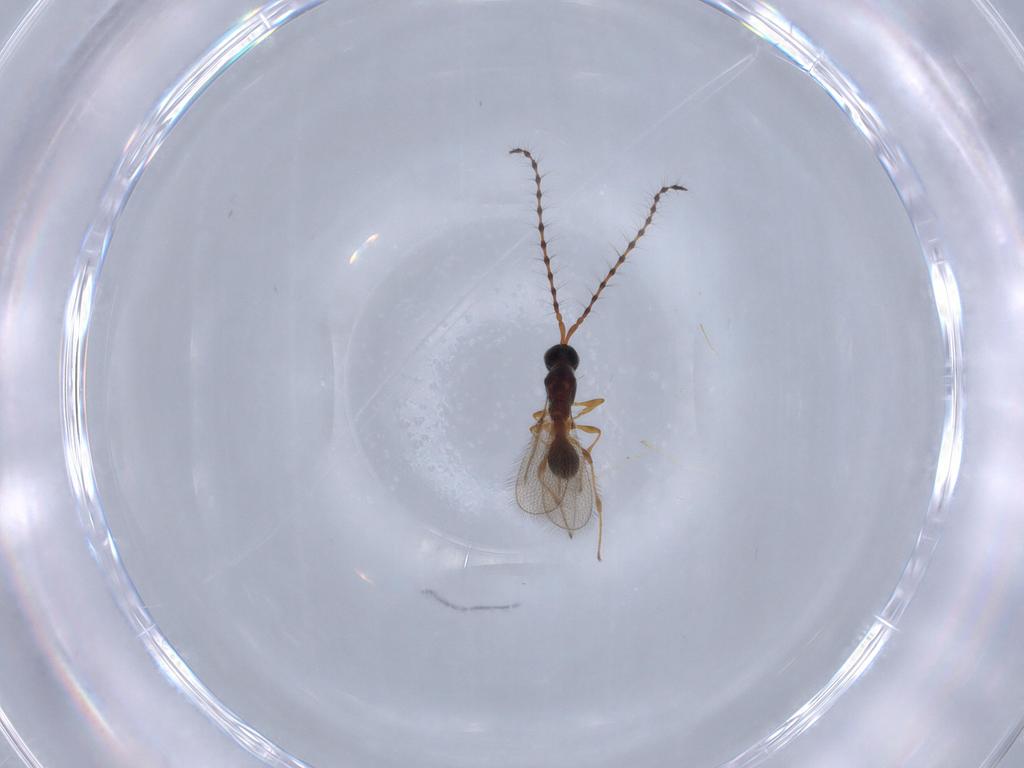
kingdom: Animalia
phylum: Arthropoda
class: Insecta
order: Hymenoptera
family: Diapriidae
